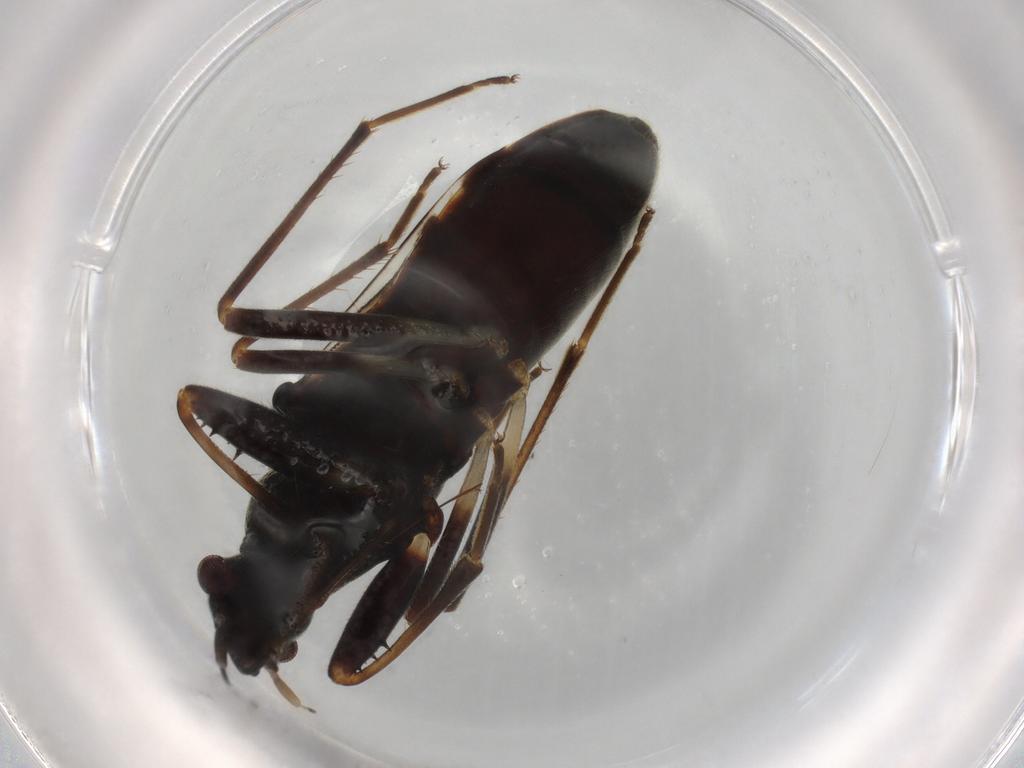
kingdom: Animalia
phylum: Arthropoda
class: Insecta
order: Hemiptera
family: Rhyparochromidae
